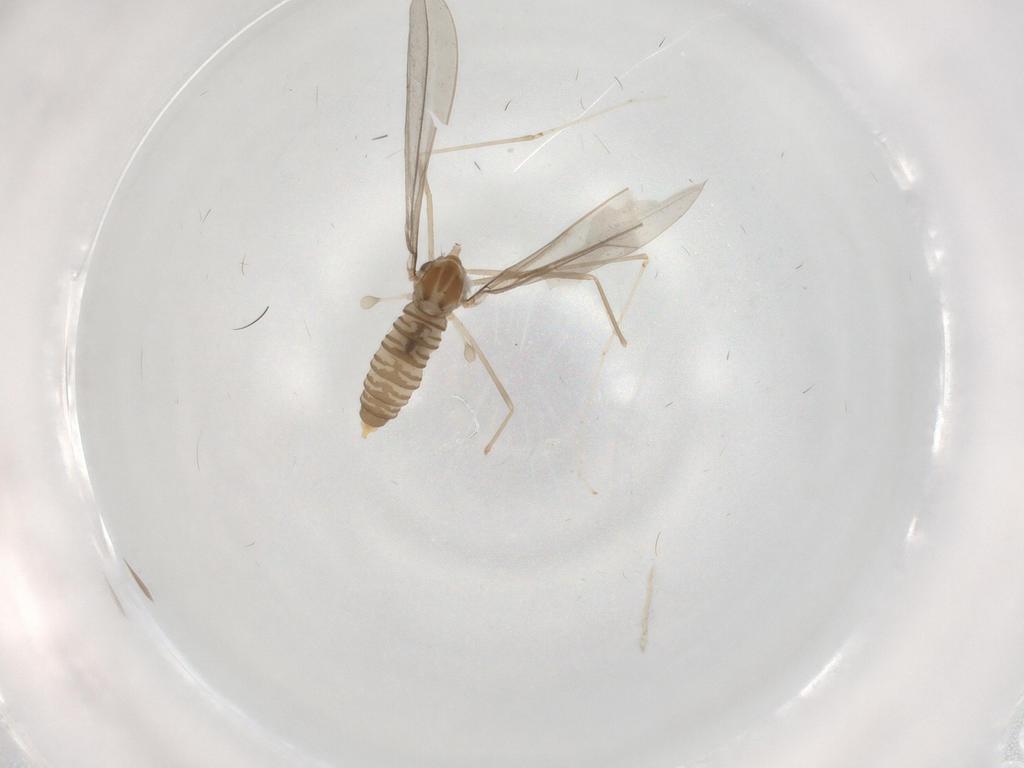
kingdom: Animalia
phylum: Arthropoda
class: Insecta
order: Diptera
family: Cecidomyiidae
